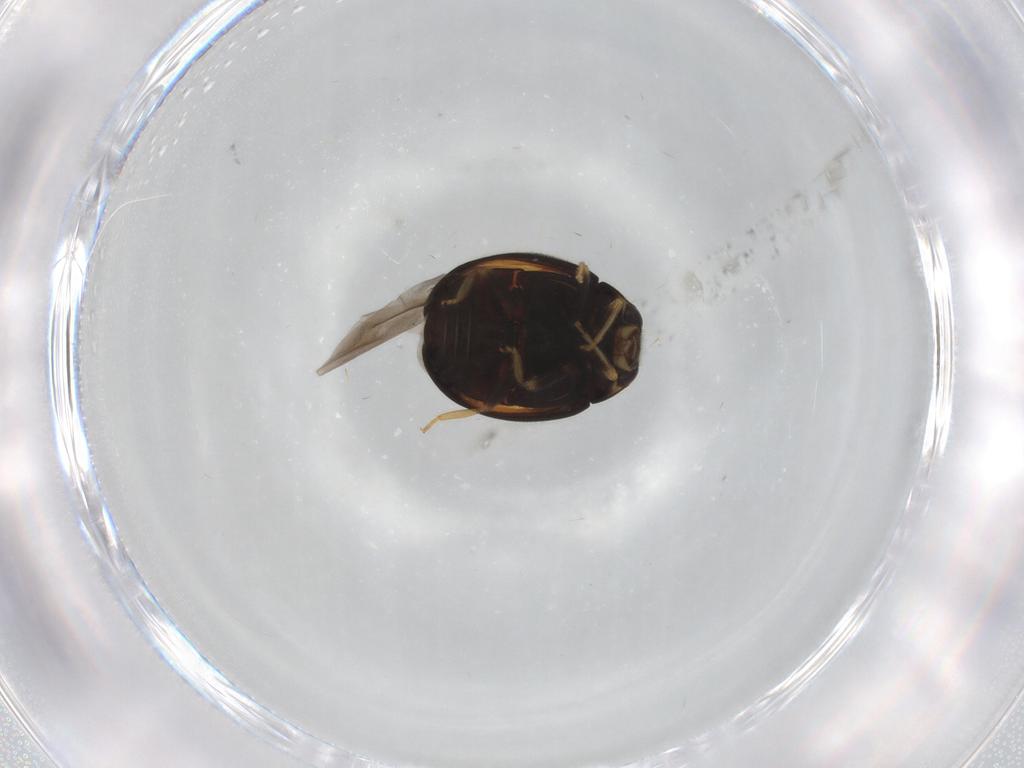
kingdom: Animalia
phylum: Arthropoda
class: Insecta
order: Coleoptera
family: Coccinellidae
